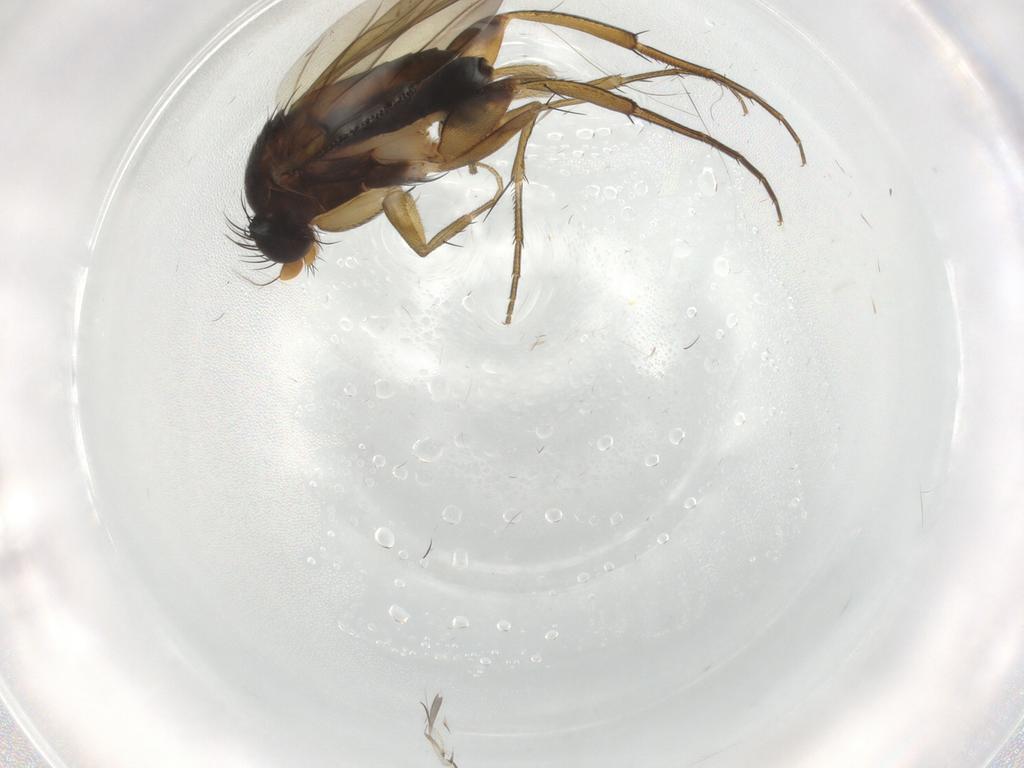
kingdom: Animalia
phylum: Arthropoda
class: Insecta
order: Diptera
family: Phoridae
